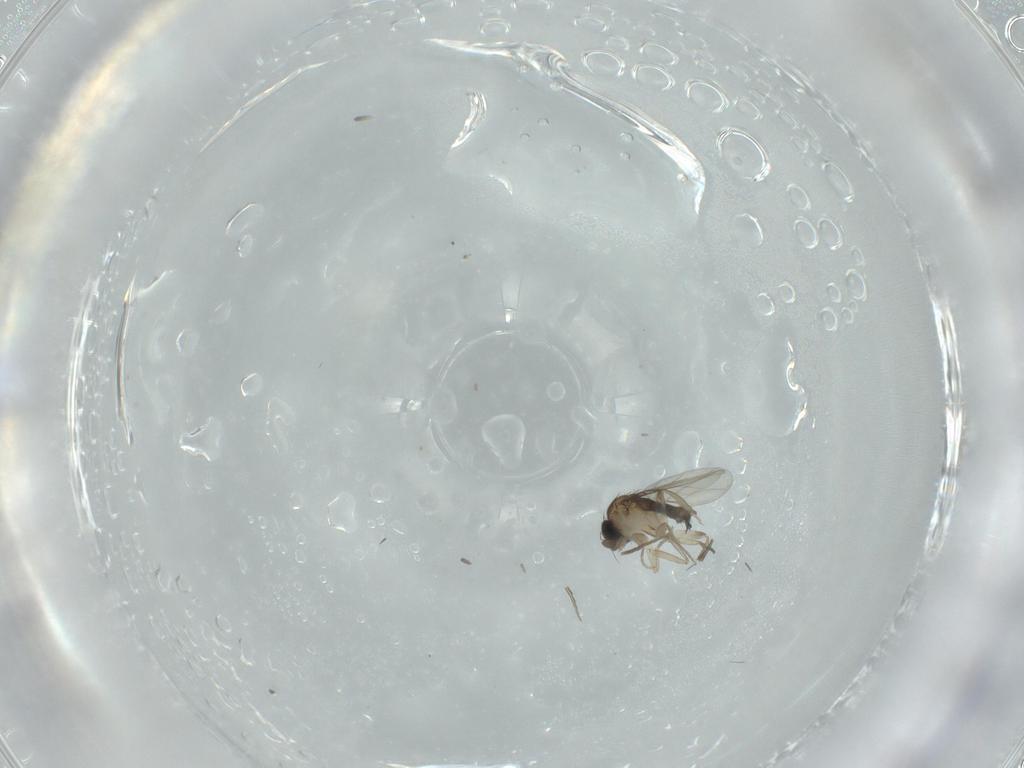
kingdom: Animalia
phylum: Arthropoda
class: Insecta
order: Diptera
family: Phoridae
